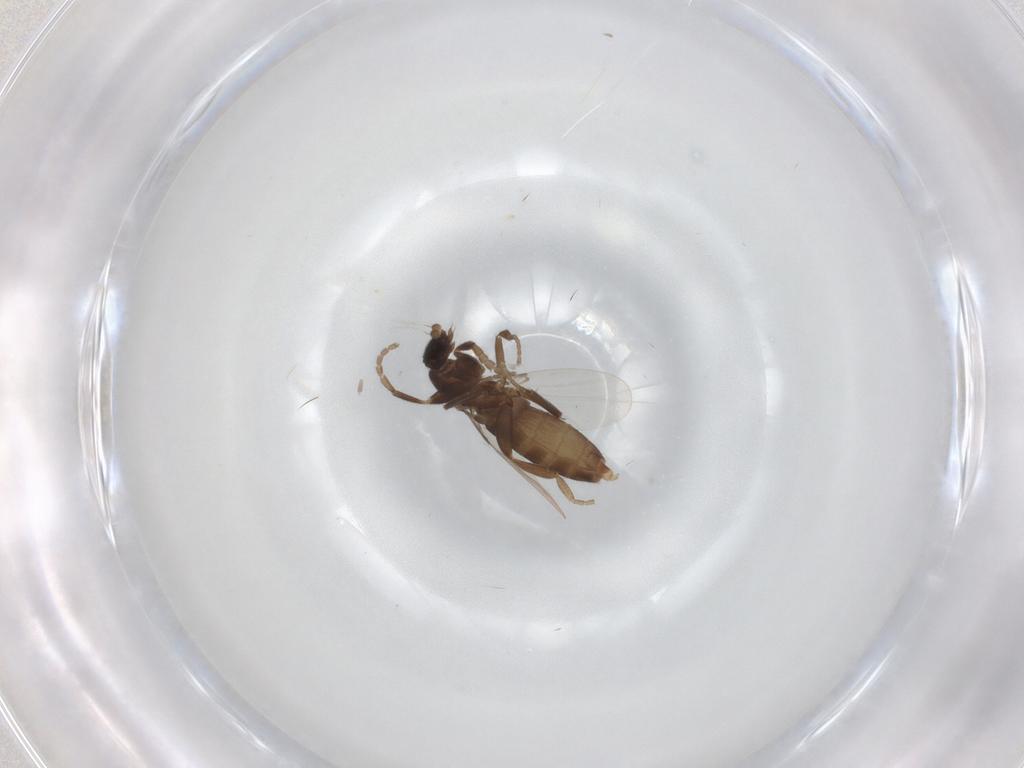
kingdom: Animalia
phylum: Arthropoda
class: Insecta
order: Diptera
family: Phoridae
